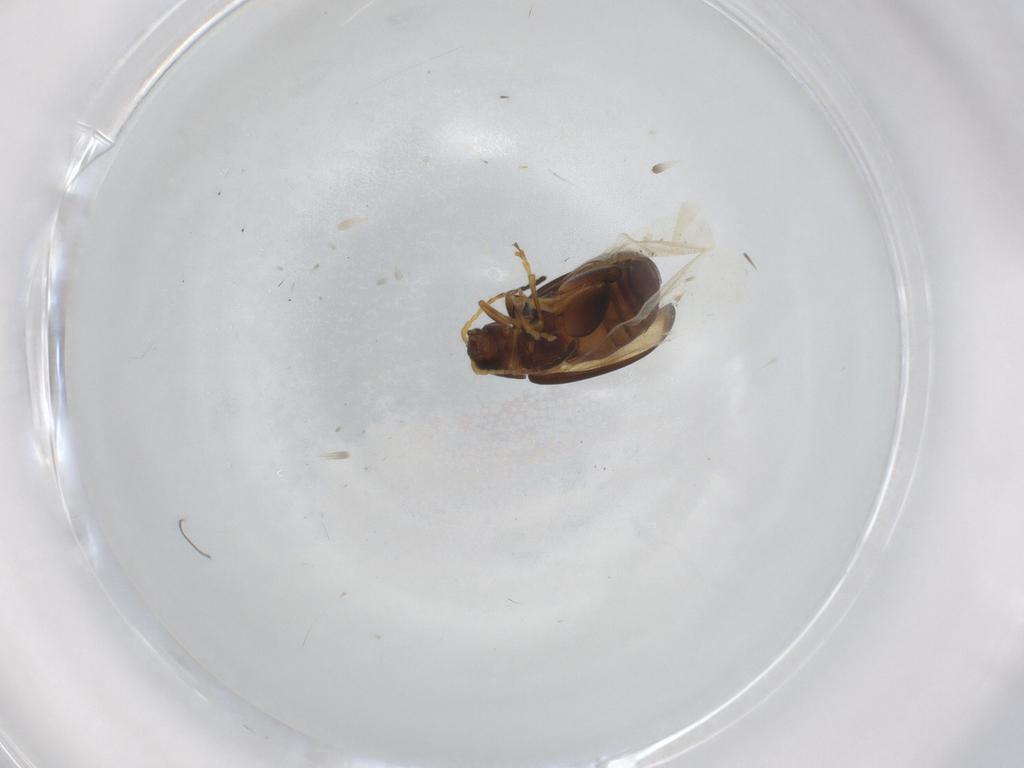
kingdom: Animalia
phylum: Arthropoda
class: Insecta
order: Coleoptera
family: Chrysomelidae
